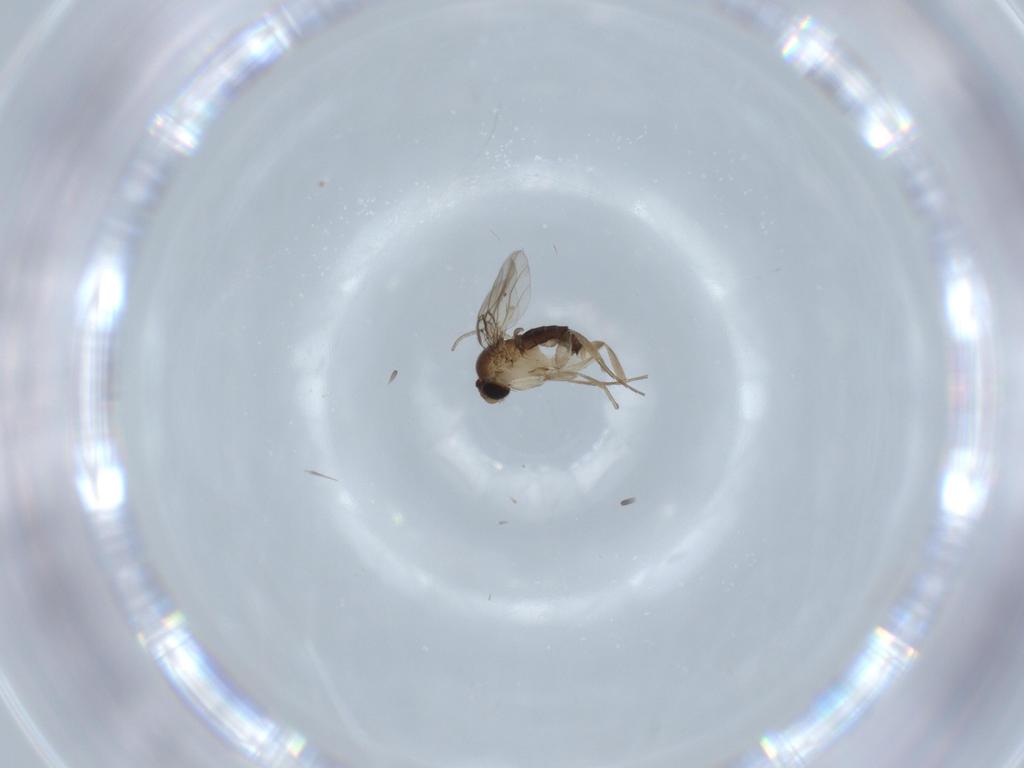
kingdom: Animalia
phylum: Arthropoda
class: Insecta
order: Diptera
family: Phoridae
